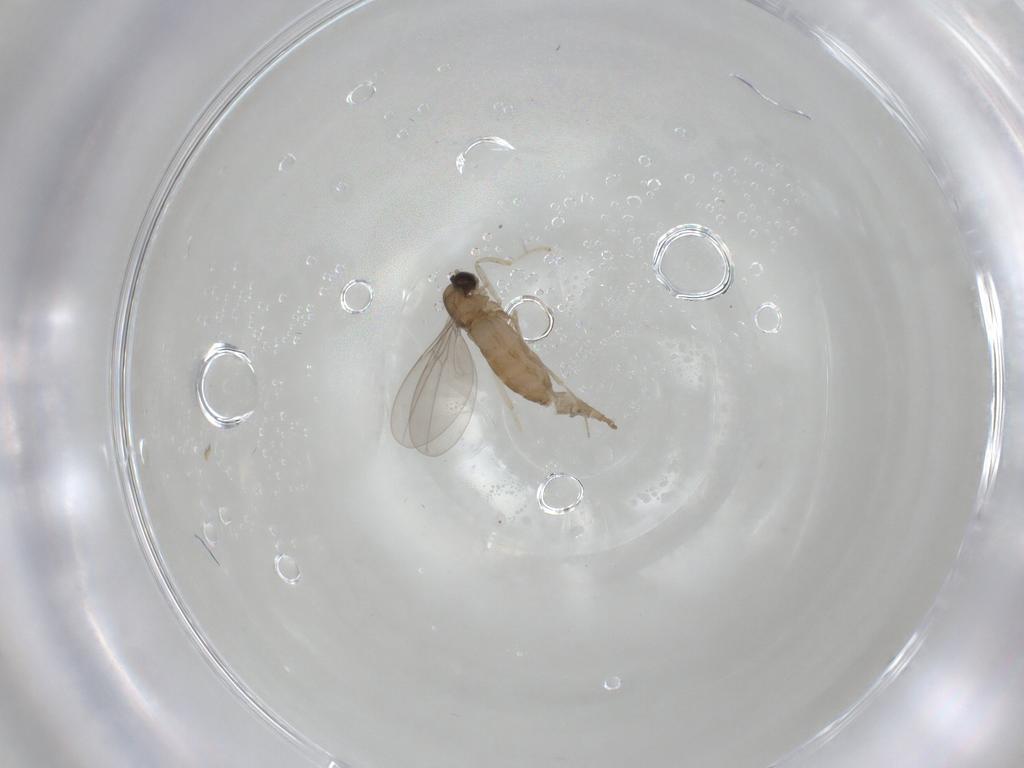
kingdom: Animalia
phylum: Arthropoda
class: Insecta
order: Diptera
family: Cecidomyiidae
